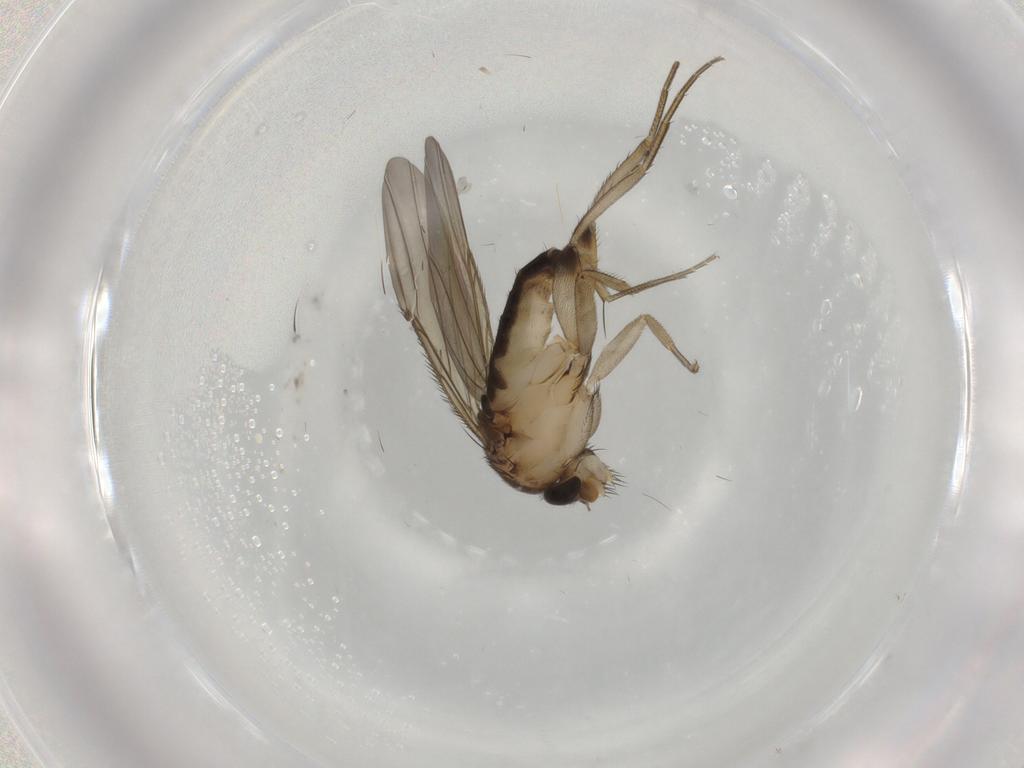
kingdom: Animalia
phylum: Arthropoda
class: Insecta
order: Diptera
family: Phoridae
